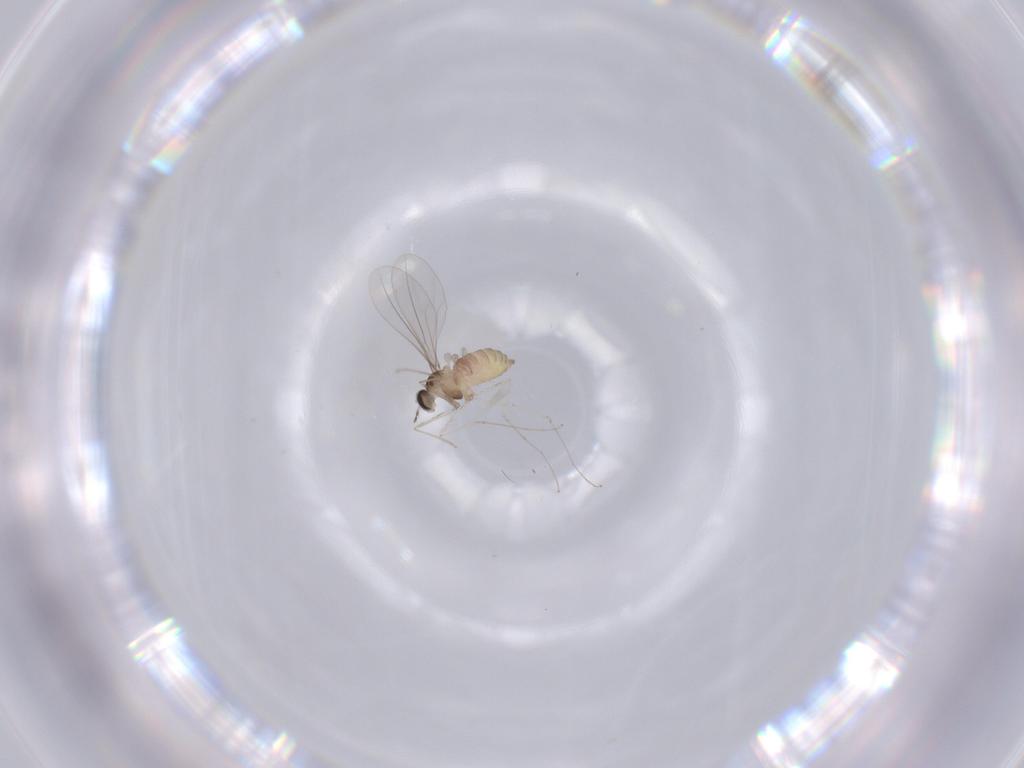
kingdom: Animalia
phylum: Arthropoda
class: Insecta
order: Diptera
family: Cecidomyiidae
